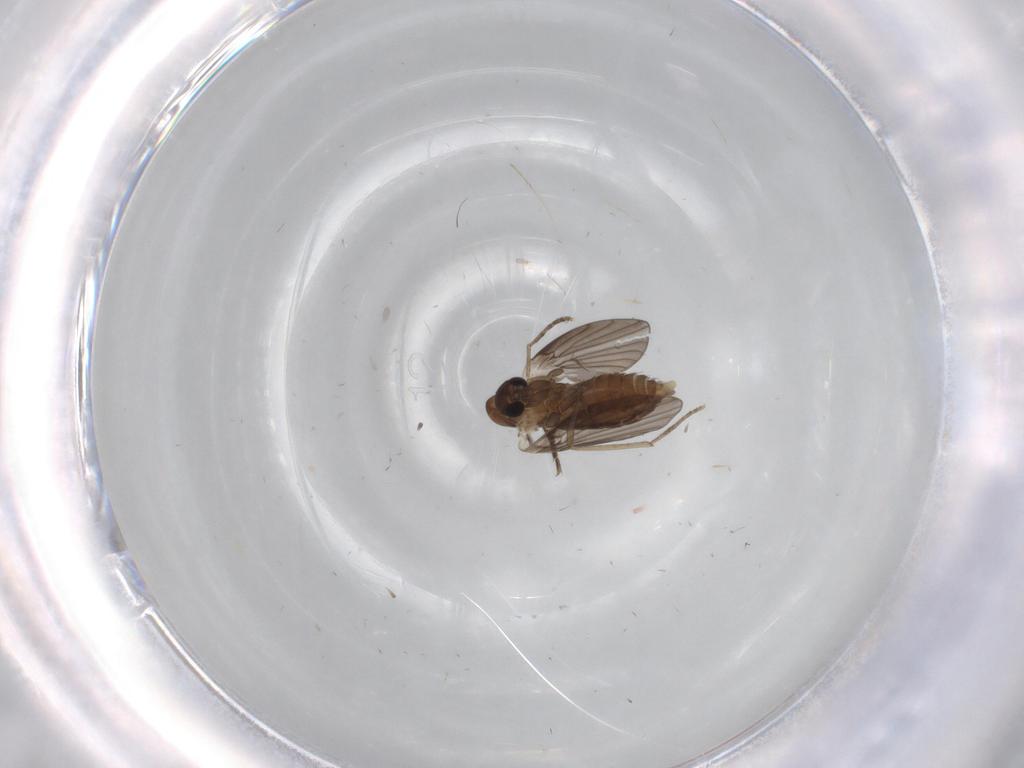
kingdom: Animalia
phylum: Arthropoda
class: Insecta
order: Diptera
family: Psychodidae
